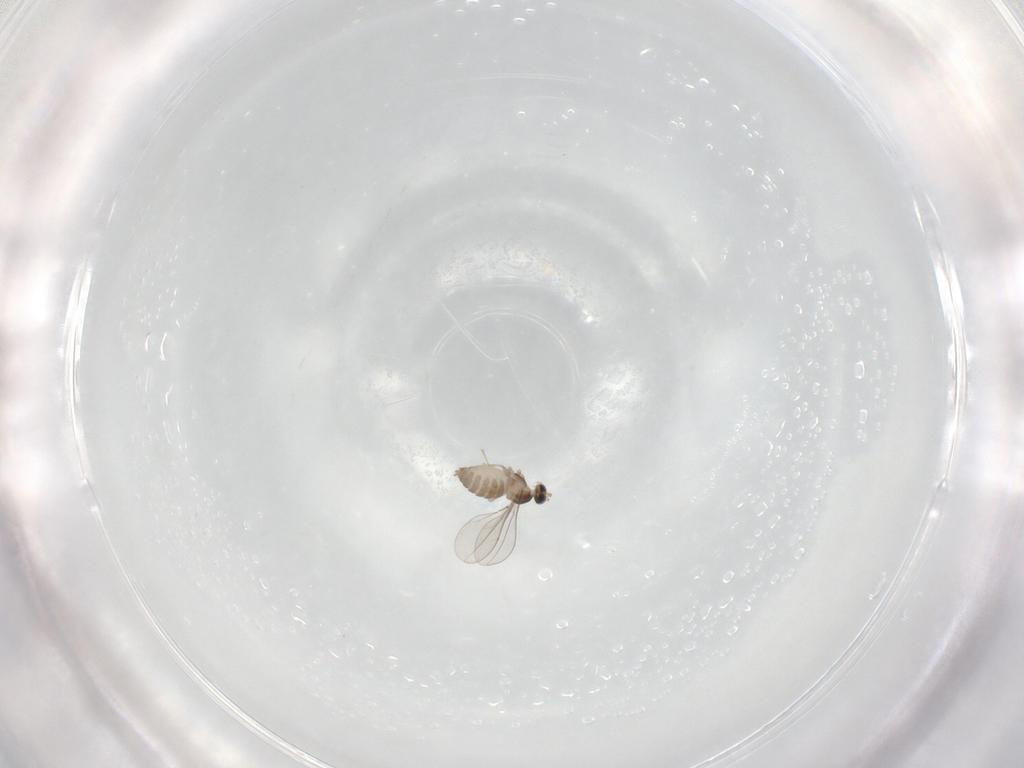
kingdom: Animalia
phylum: Arthropoda
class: Insecta
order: Diptera
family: Cecidomyiidae
